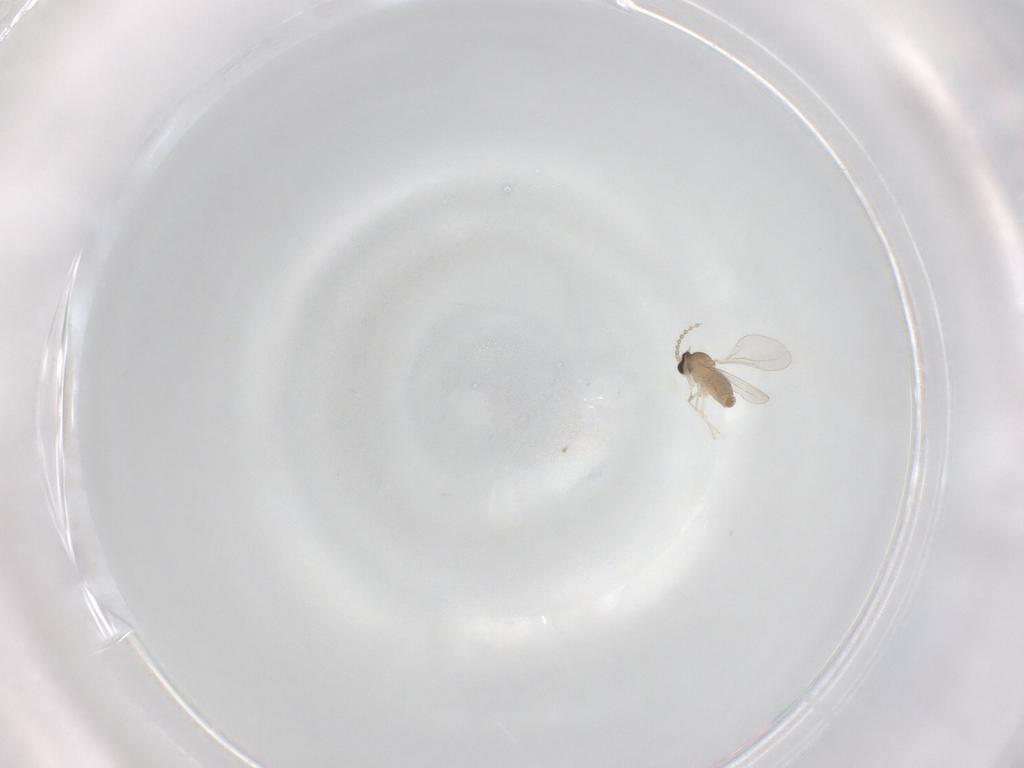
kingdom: Animalia
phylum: Arthropoda
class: Insecta
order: Diptera
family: Cecidomyiidae
